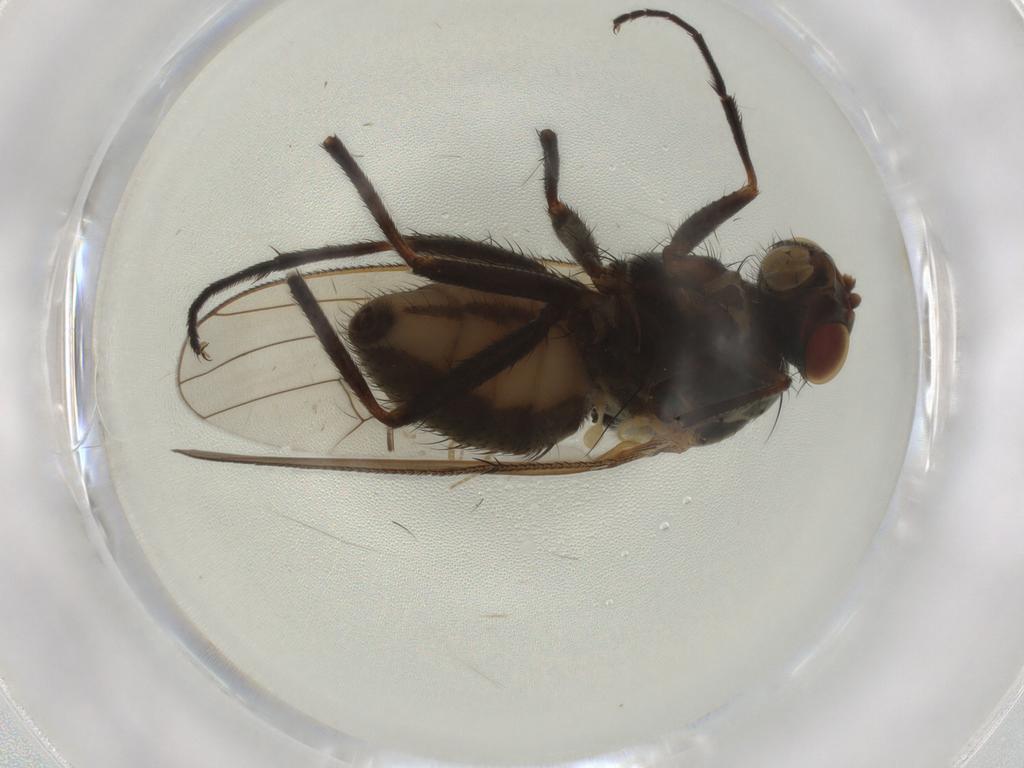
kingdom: Animalia
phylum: Arthropoda
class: Insecta
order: Diptera
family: Anthomyiidae
